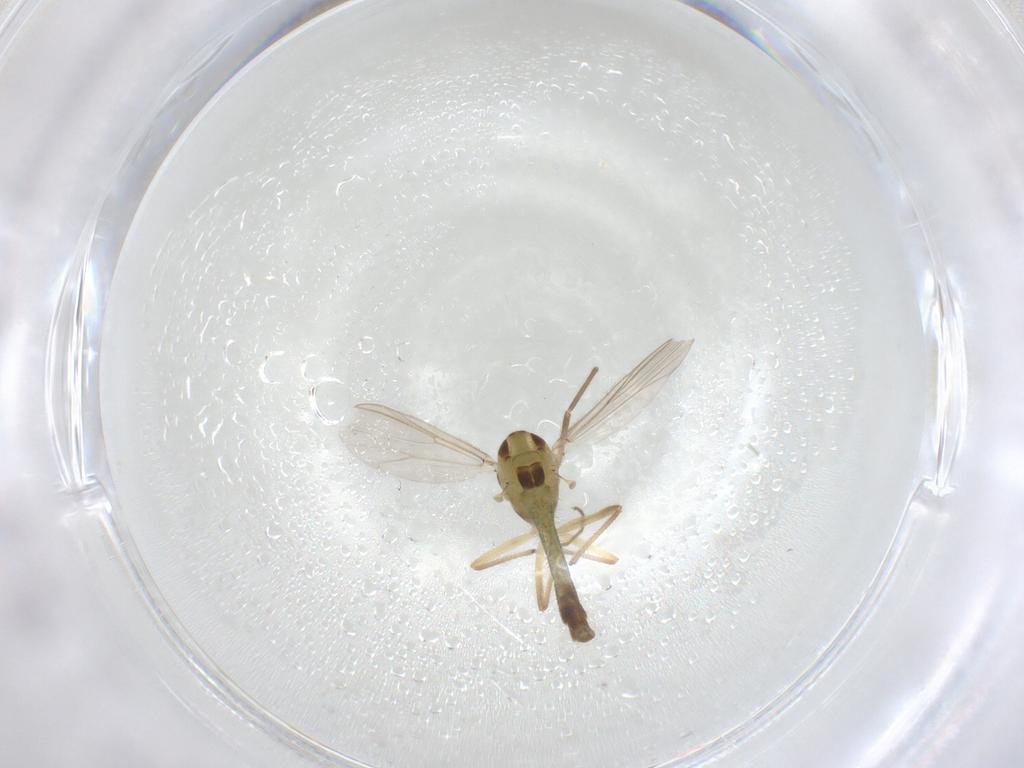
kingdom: Animalia
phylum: Arthropoda
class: Insecta
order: Diptera
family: Chironomidae
